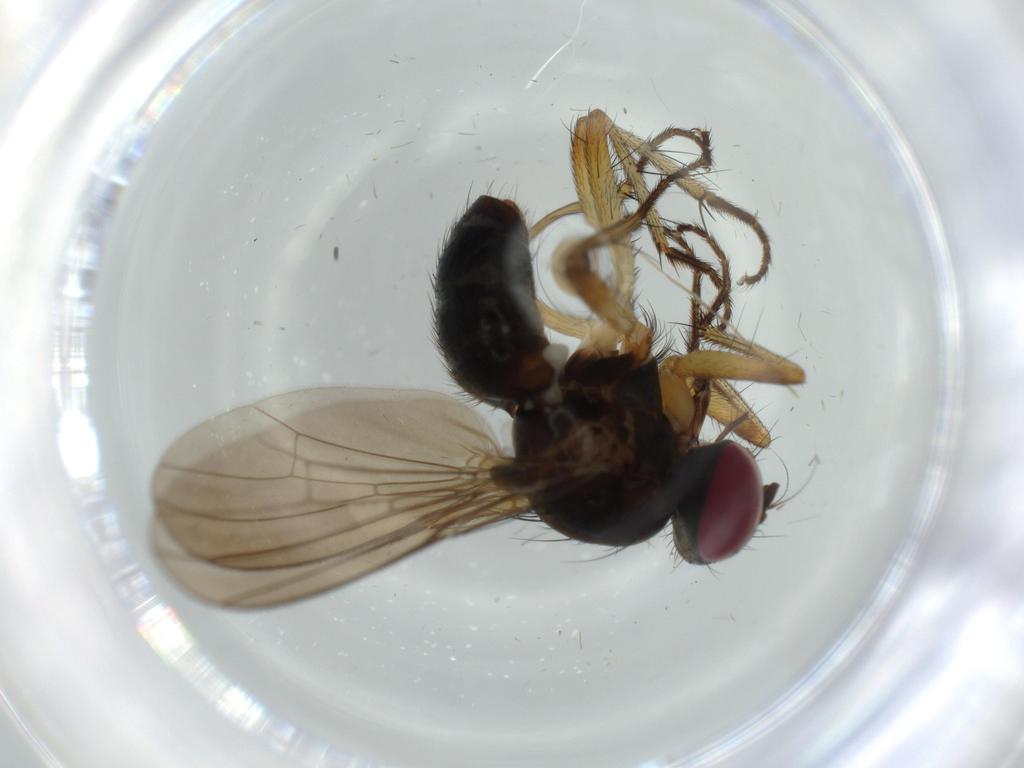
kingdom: Animalia
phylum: Arthropoda
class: Insecta
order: Diptera
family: Muscidae
